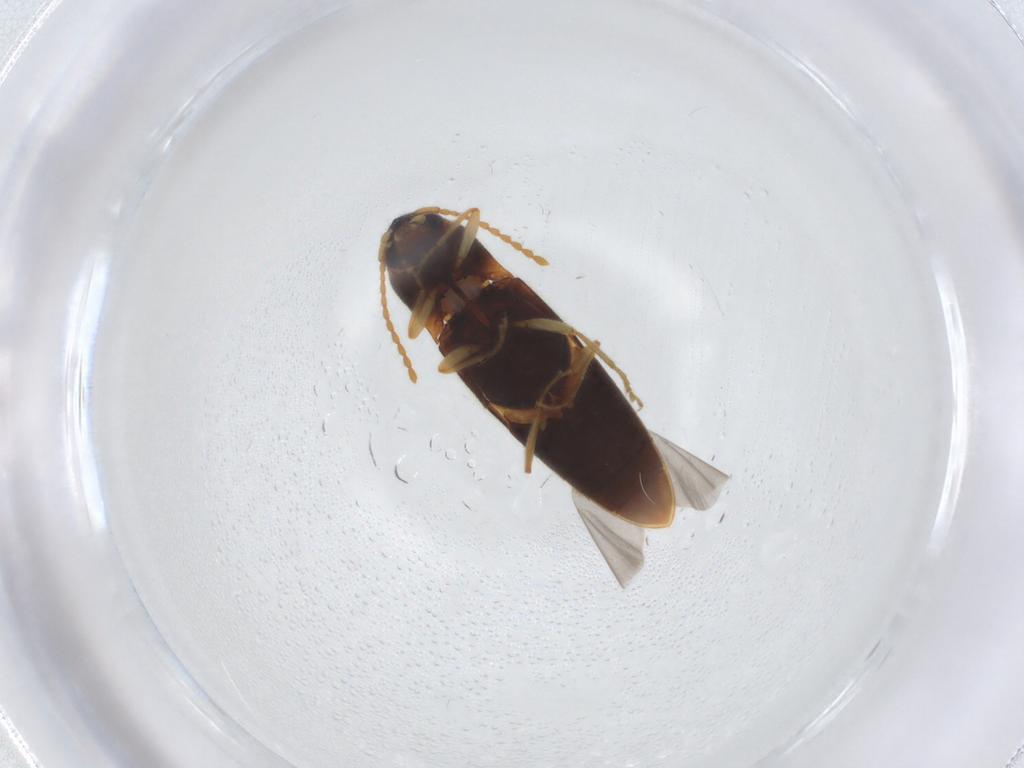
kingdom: Animalia
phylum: Arthropoda
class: Insecta
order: Coleoptera
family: Elateridae
